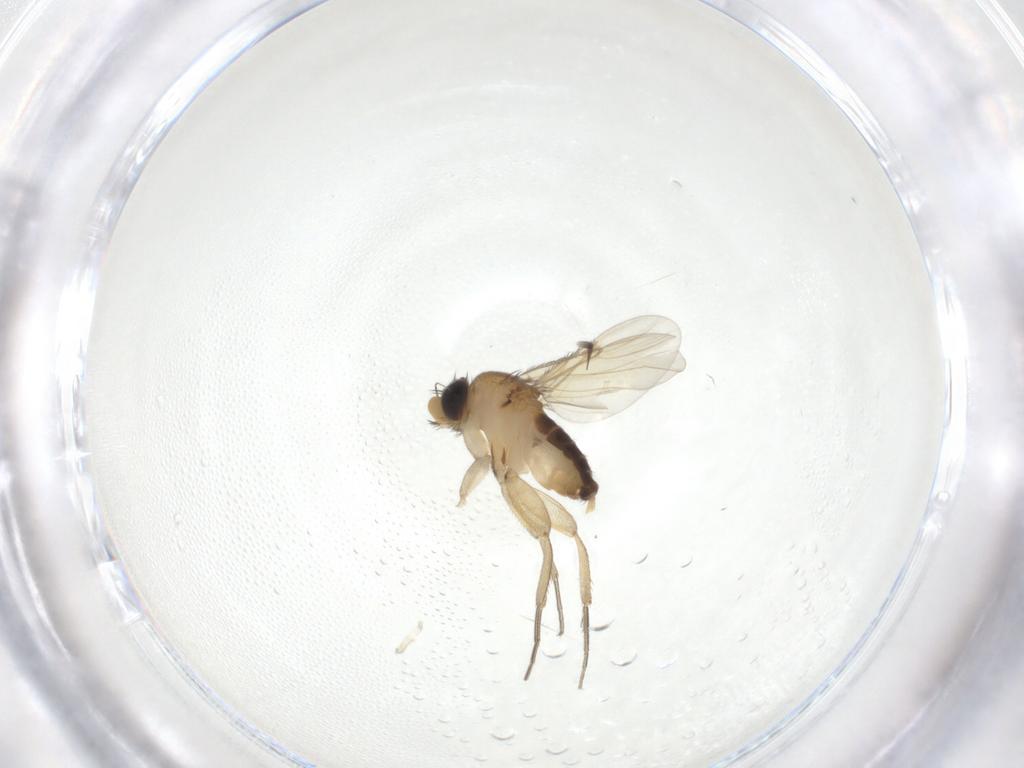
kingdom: Animalia
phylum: Arthropoda
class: Insecta
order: Diptera
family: Phoridae
